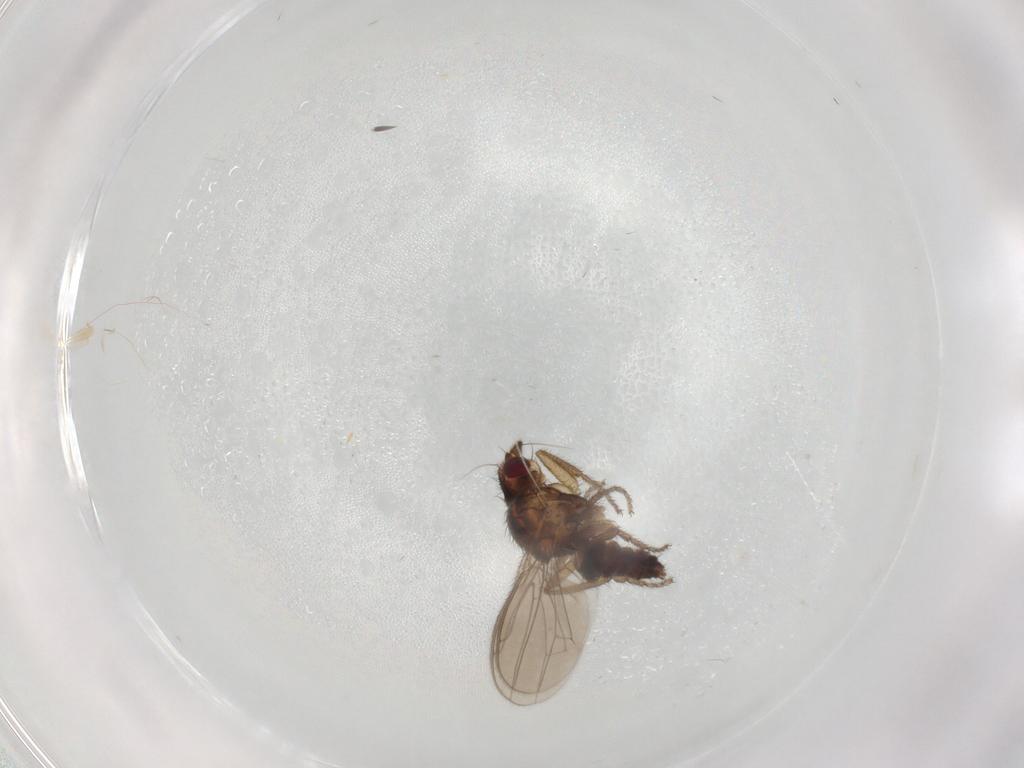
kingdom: Animalia
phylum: Arthropoda
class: Insecta
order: Diptera
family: Sphaeroceridae
